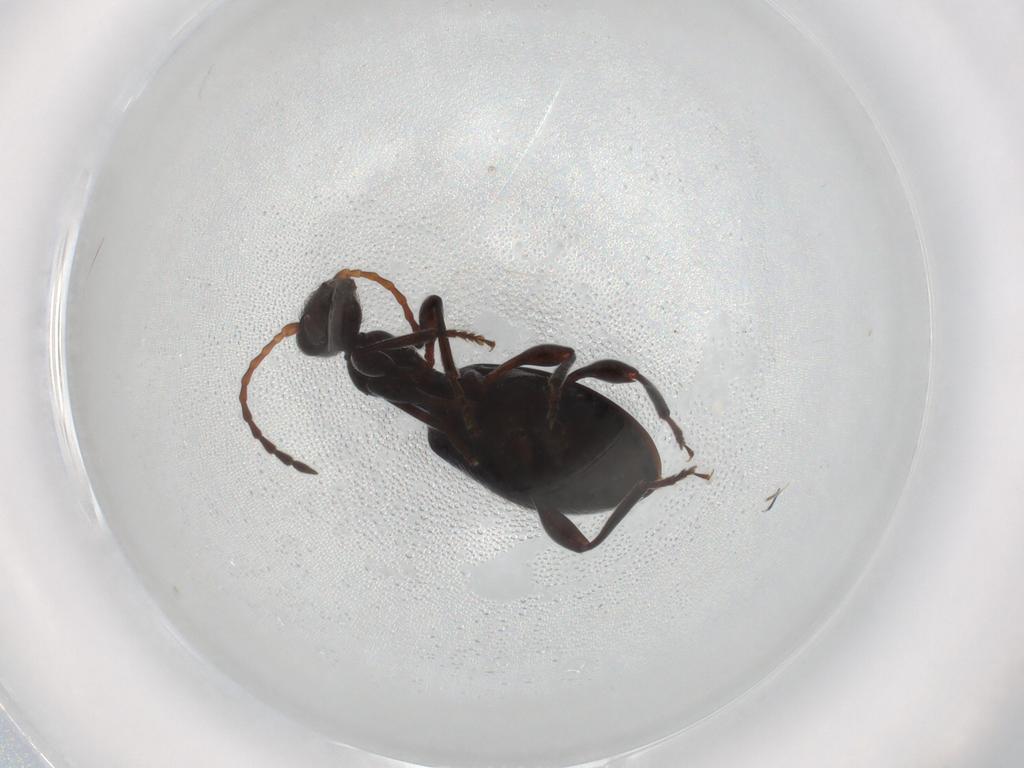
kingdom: Animalia
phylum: Arthropoda
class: Insecta
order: Coleoptera
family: Anthicidae
